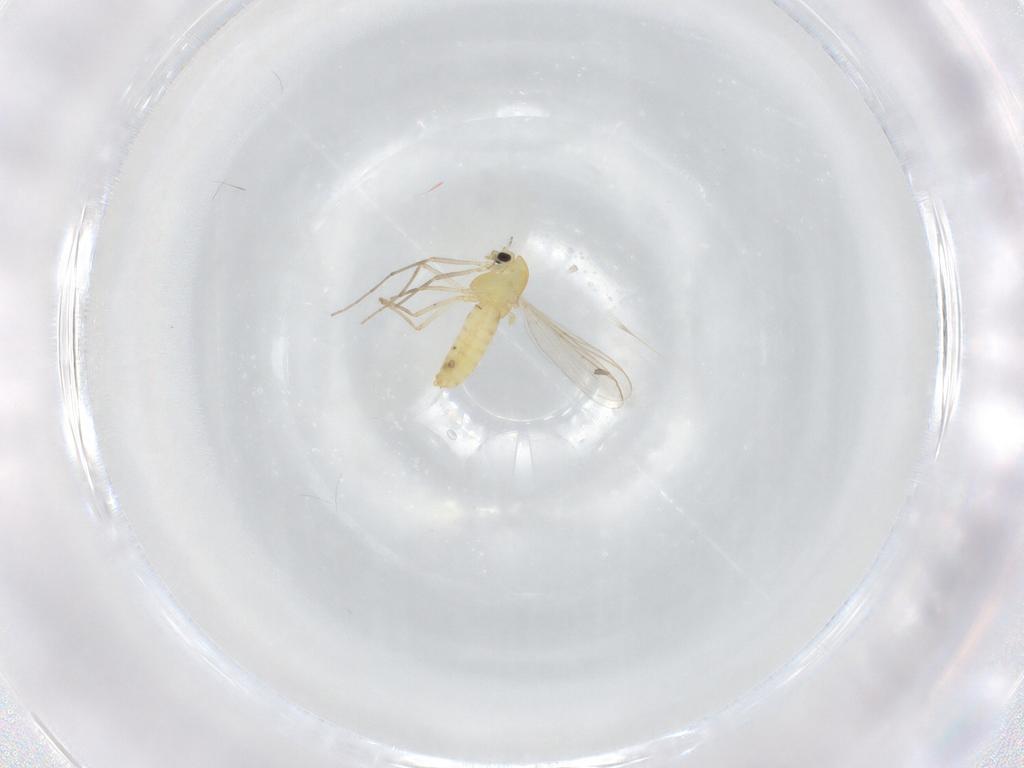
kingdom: Animalia
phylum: Arthropoda
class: Insecta
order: Diptera
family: Chironomidae
